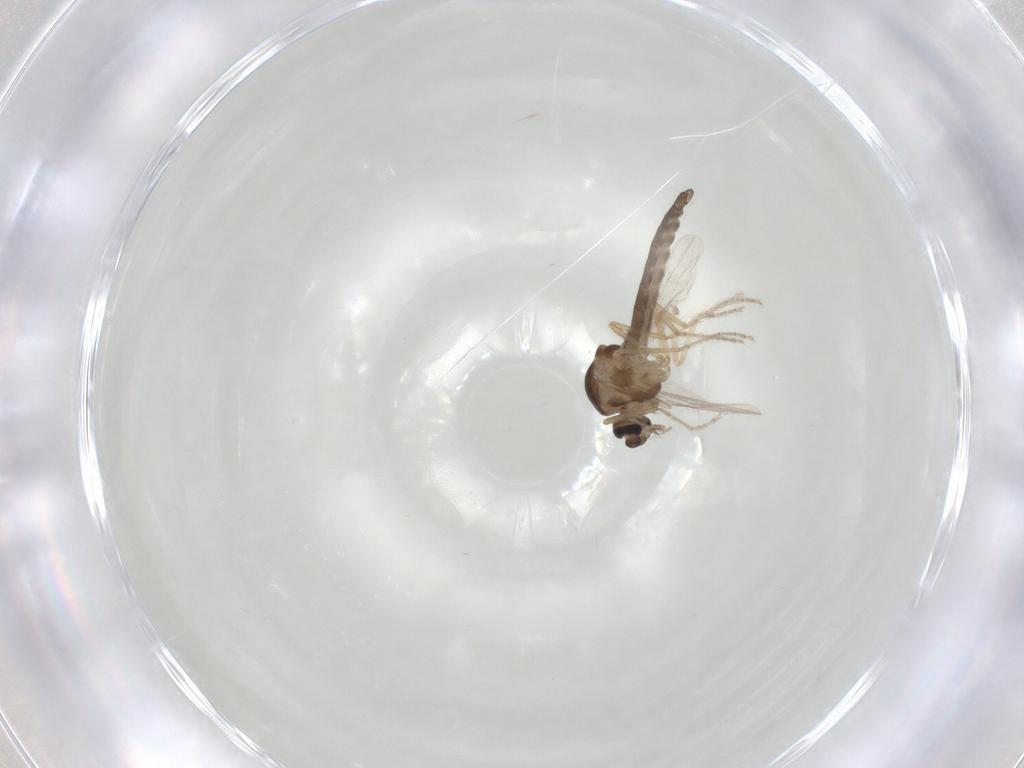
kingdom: Animalia
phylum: Arthropoda
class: Insecta
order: Diptera
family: Ceratopogonidae
